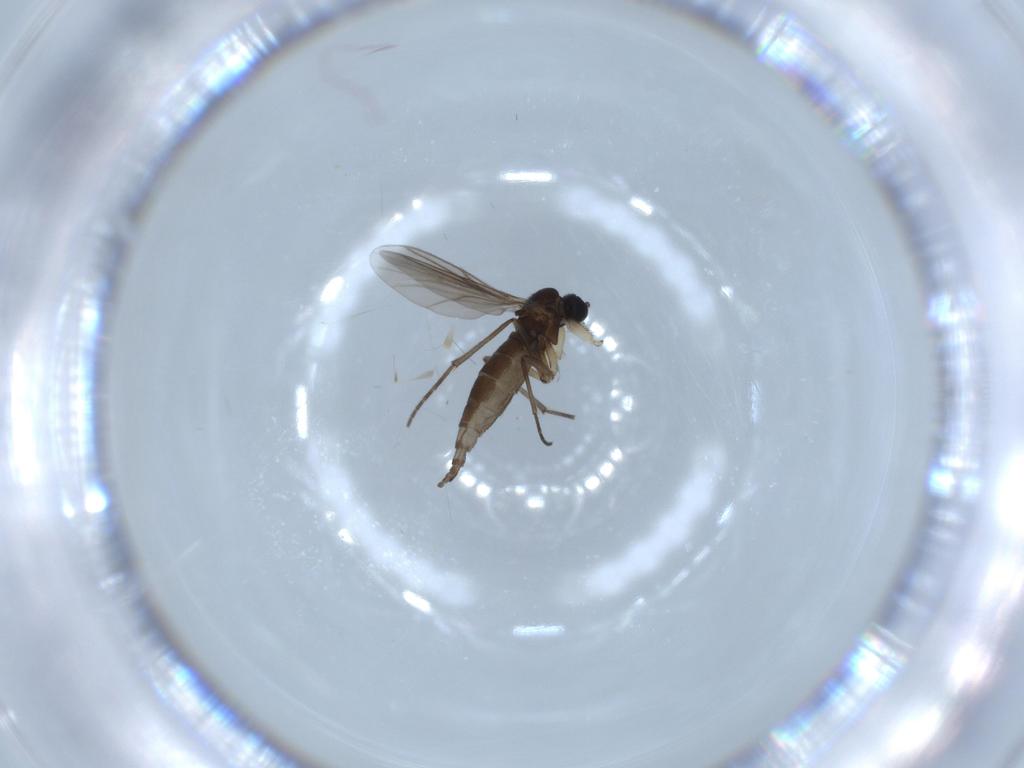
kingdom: Animalia
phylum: Arthropoda
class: Insecta
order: Diptera
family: Sciaridae
